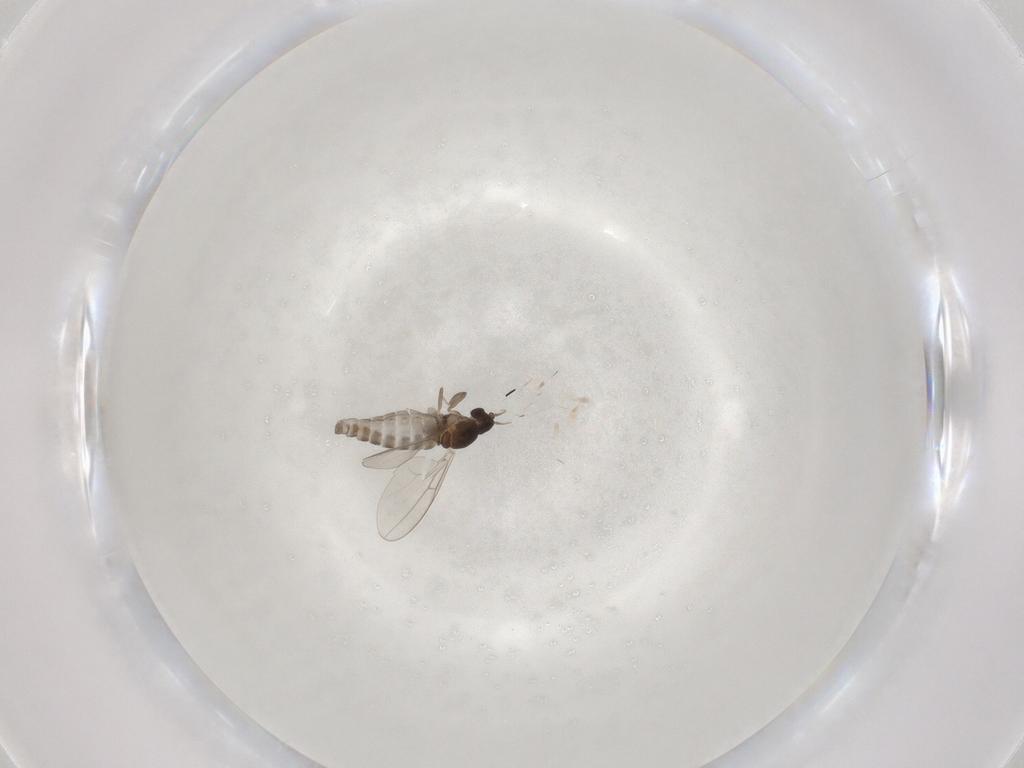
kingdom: Animalia
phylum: Arthropoda
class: Insecta
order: Diptera
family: Cecidomyiidae
